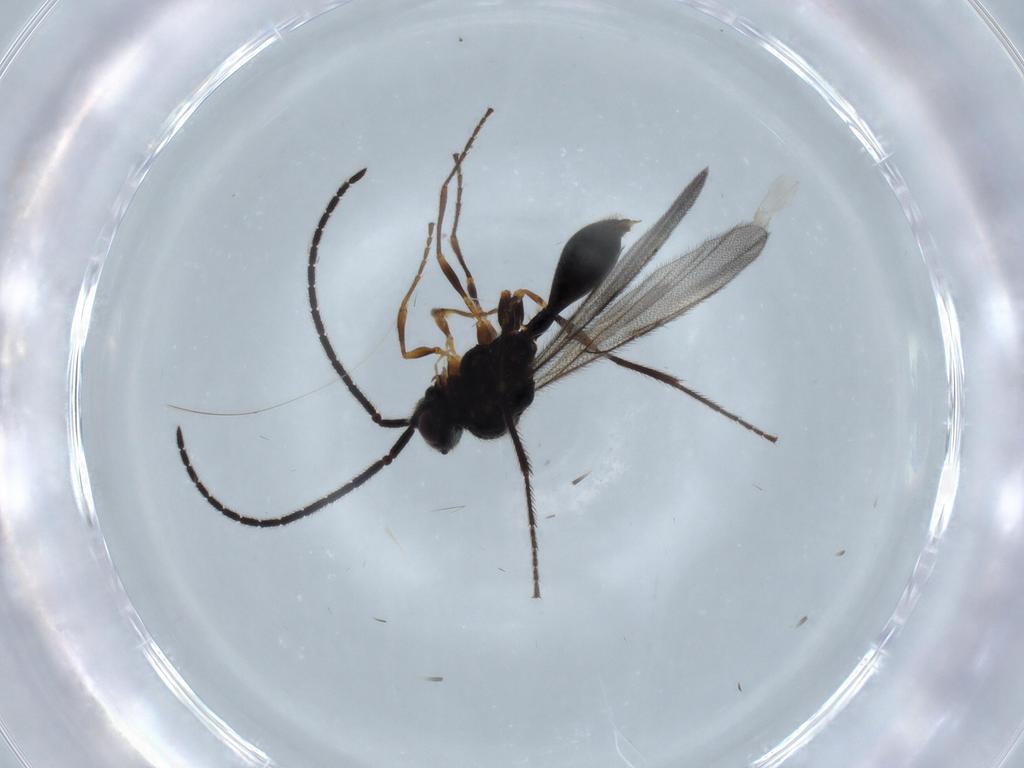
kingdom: Animalia
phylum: Arthropoda
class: Insecta
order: Hymenoptera
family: Diapriidae
